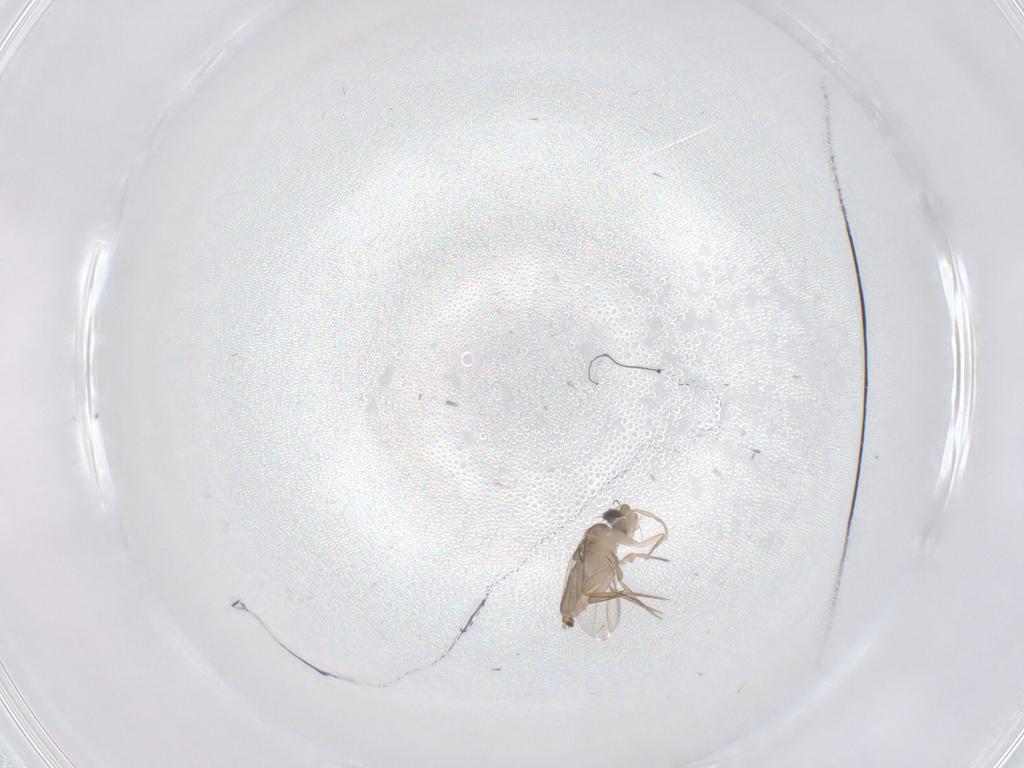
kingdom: Animalia
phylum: Arthropoda
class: Insecta
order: Diptera
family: Phoridae
